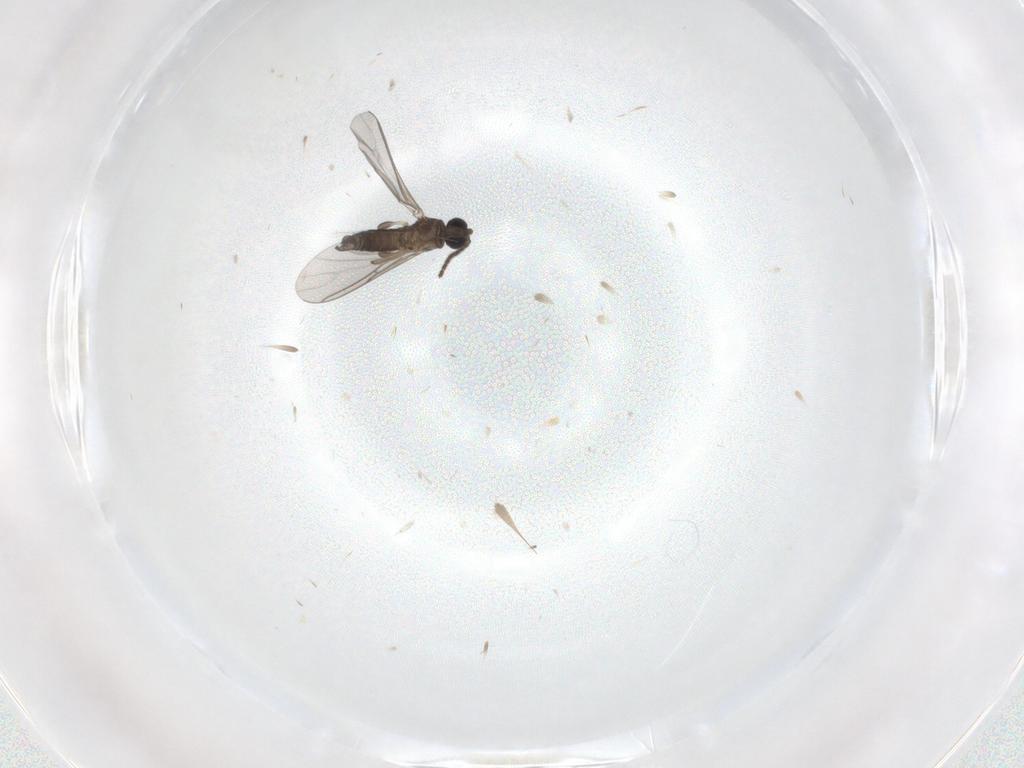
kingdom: Animalia
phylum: Arthropoda
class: Insecta
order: Diptera
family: Sciaridae
